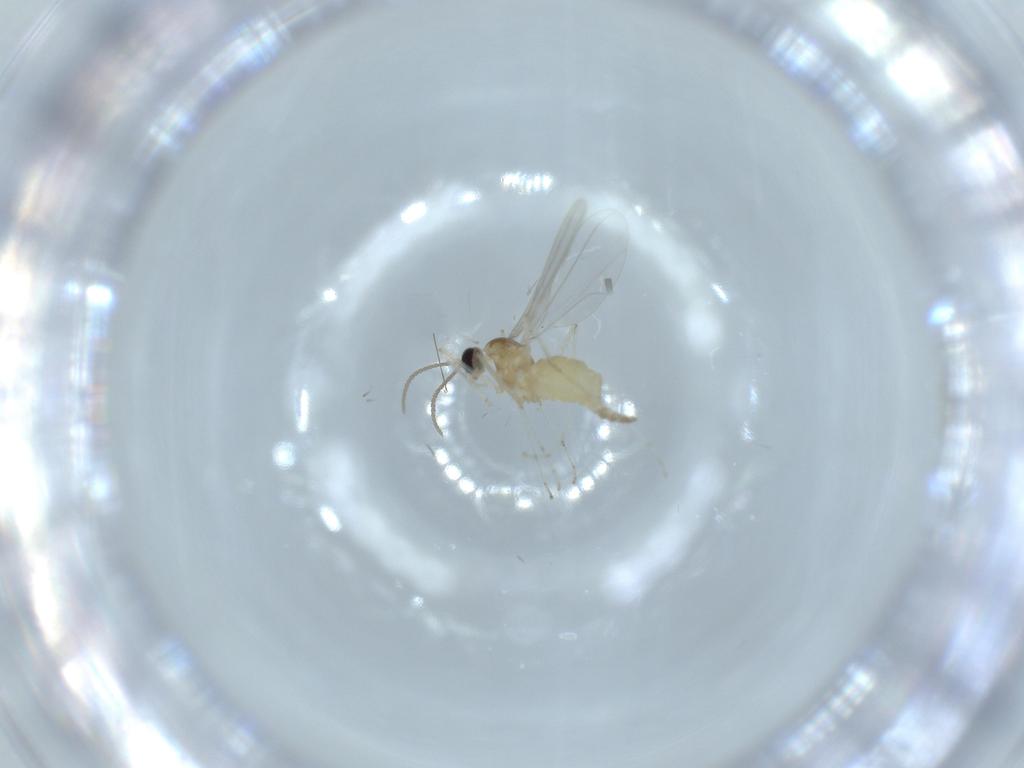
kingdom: Animalia
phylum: Arthropoda
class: Insecta
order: Diptera
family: Cecidomyiidae
